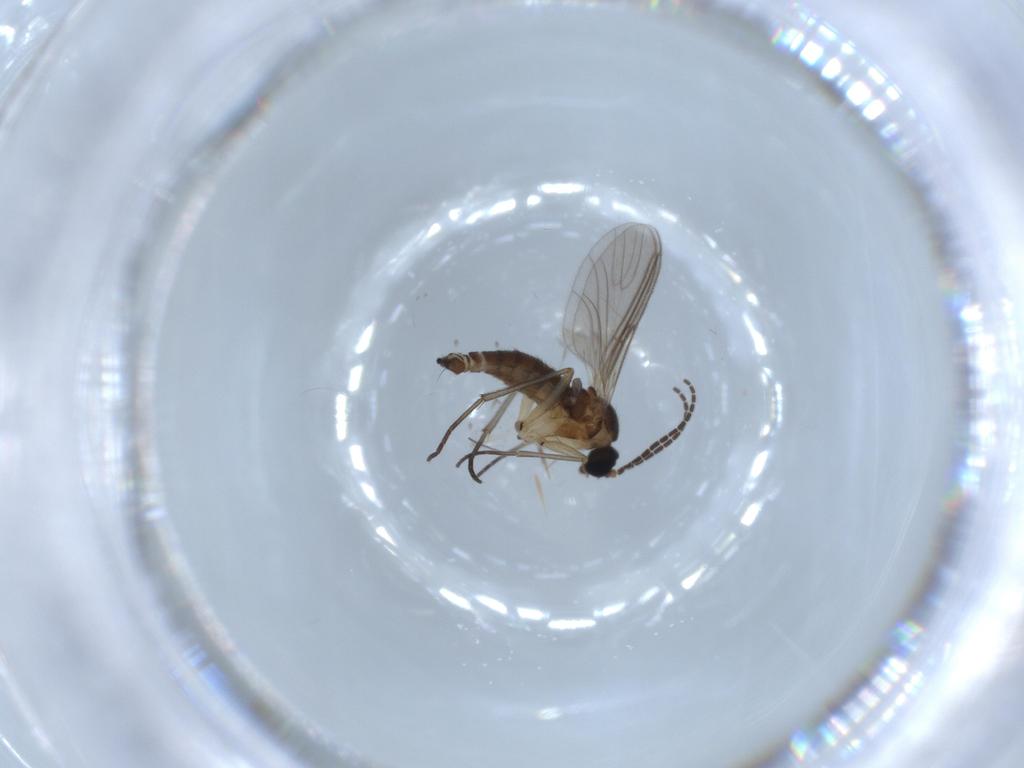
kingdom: Animalia
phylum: Arthropoda
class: Insecta
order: Diptera
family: Sciaridae
